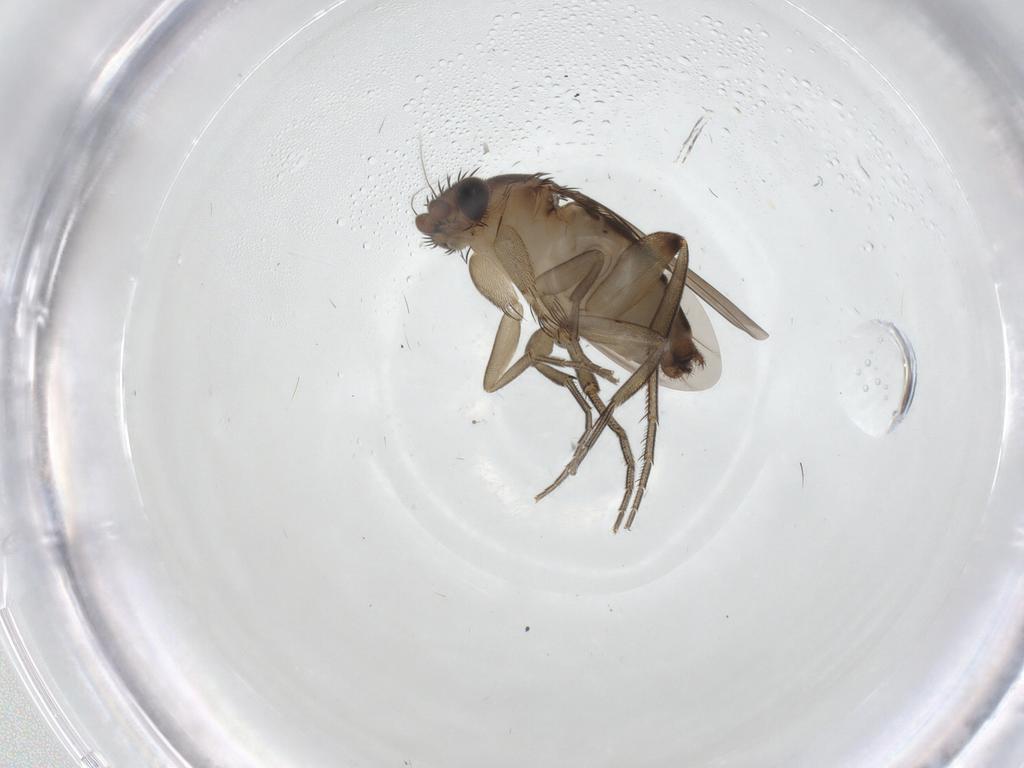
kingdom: Animalia
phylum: Arthropoda
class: Insecta
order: Diptera
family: Phoridae
